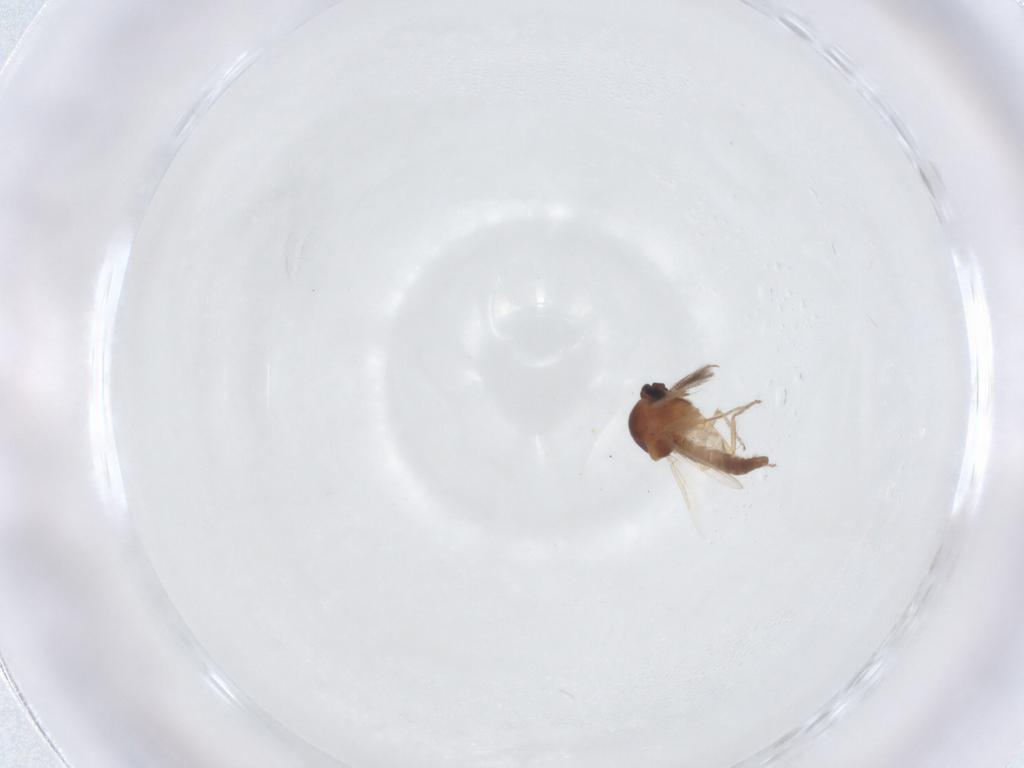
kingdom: Animalia
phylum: Arthropoda
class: Insecta
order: Diptera
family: Ceratopogonidae
